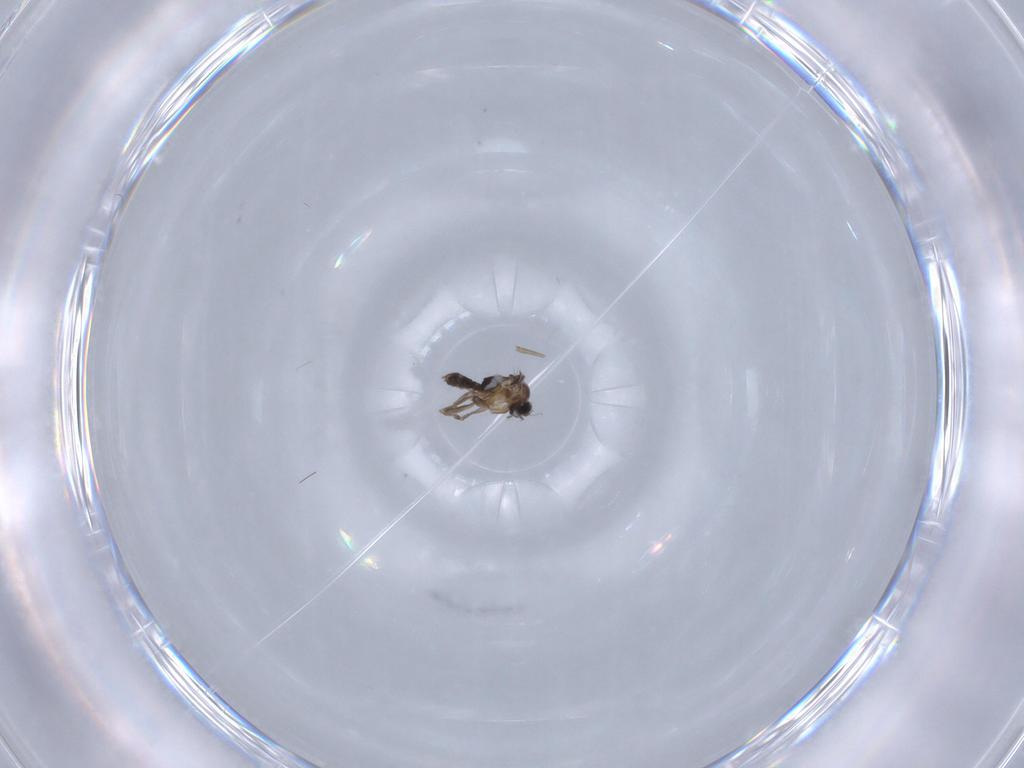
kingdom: Animalia
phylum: Arthropoda
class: Insecta
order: Diptera
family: Phoridae
